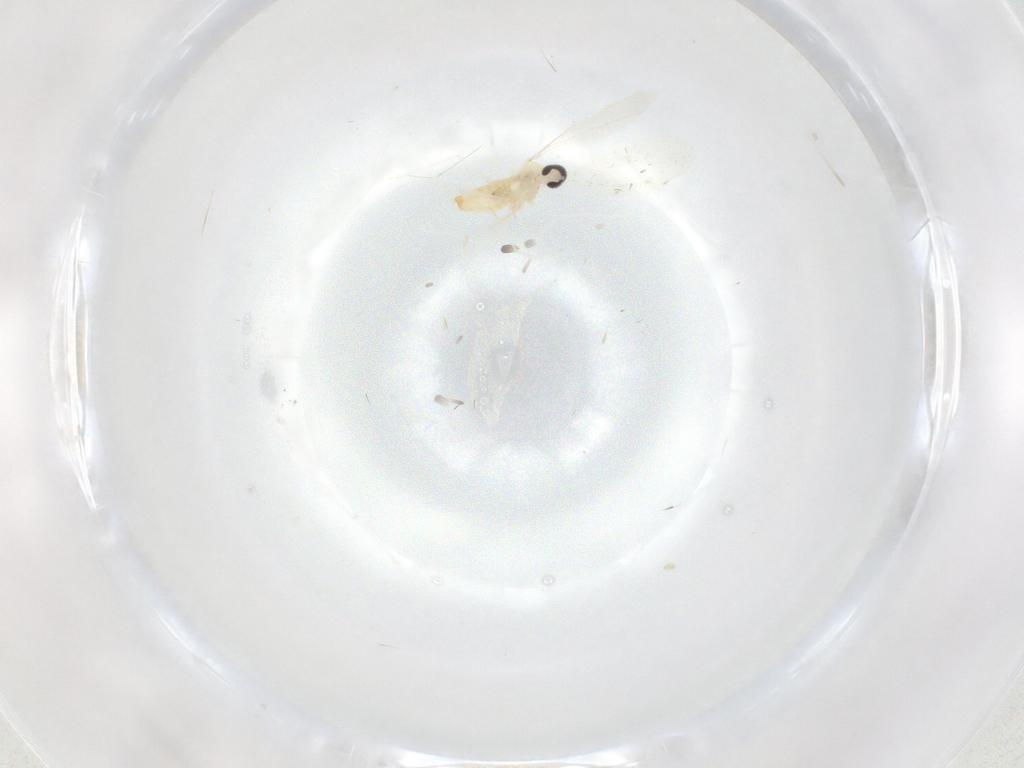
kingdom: Animalia
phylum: Arthropoda
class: Insecta
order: Diptera
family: Cecidomyiidae
